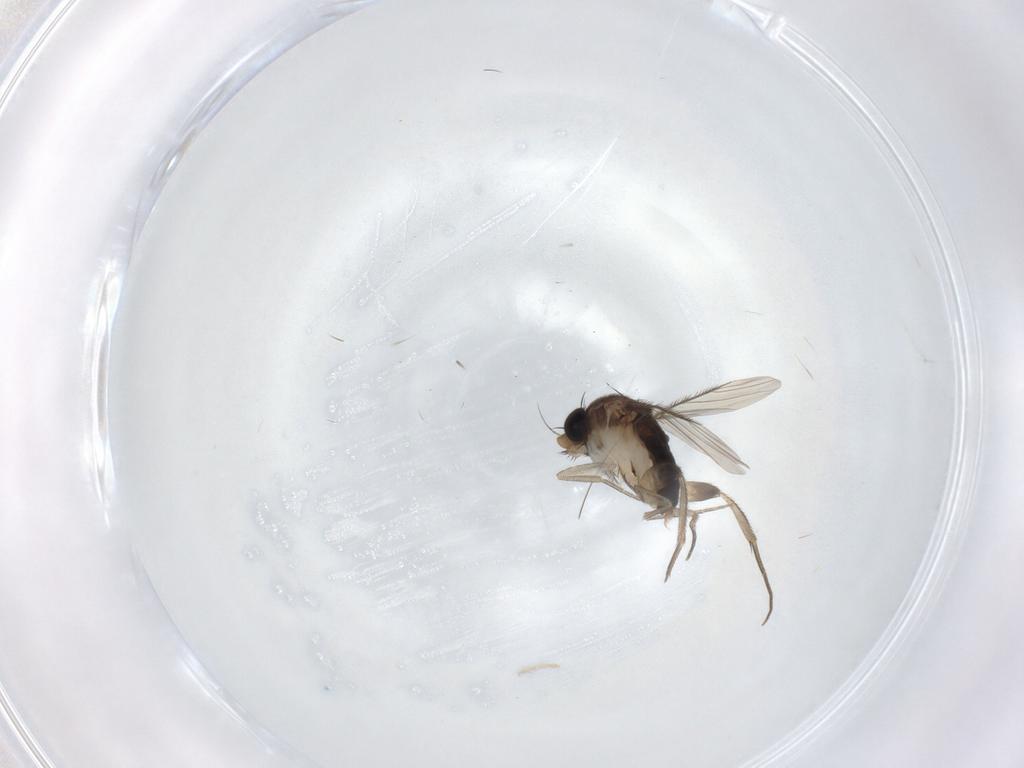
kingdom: Animalia
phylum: Arthropoda
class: Insecta
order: Diptera
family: Phoridae
